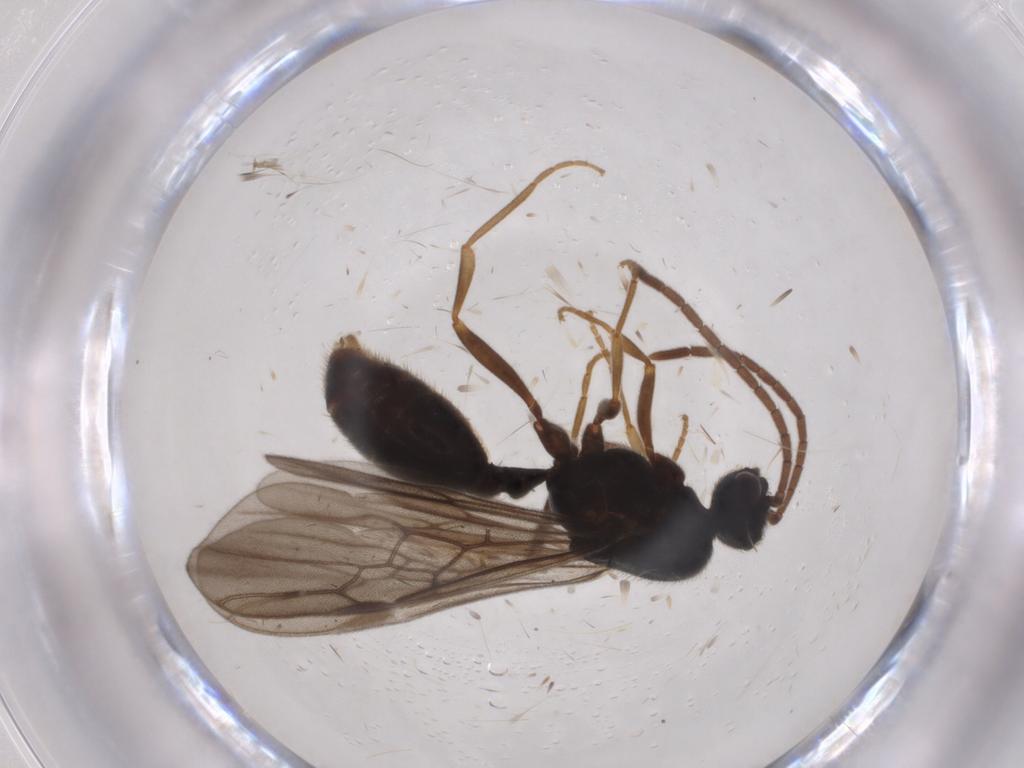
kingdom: Animalia
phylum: Arthropoda
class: Insecta
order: Hymenoptera
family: Formicidae
